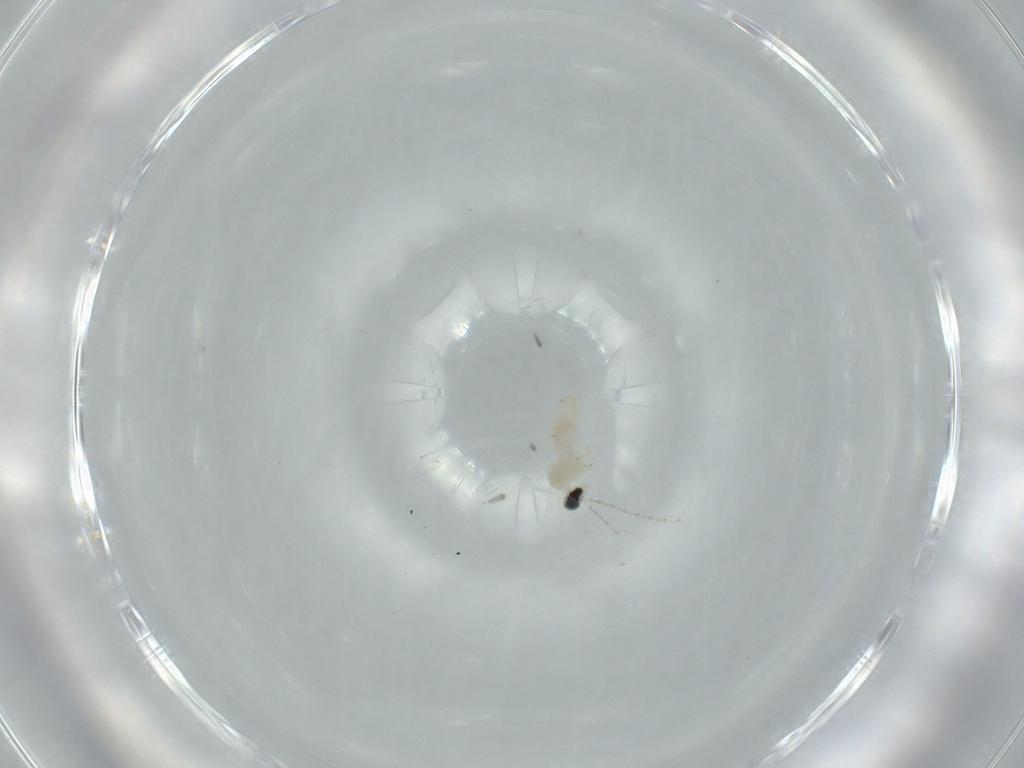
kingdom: Animalia
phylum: Arthropoda
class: Insecta
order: Diptera
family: Cecidomyiidae
